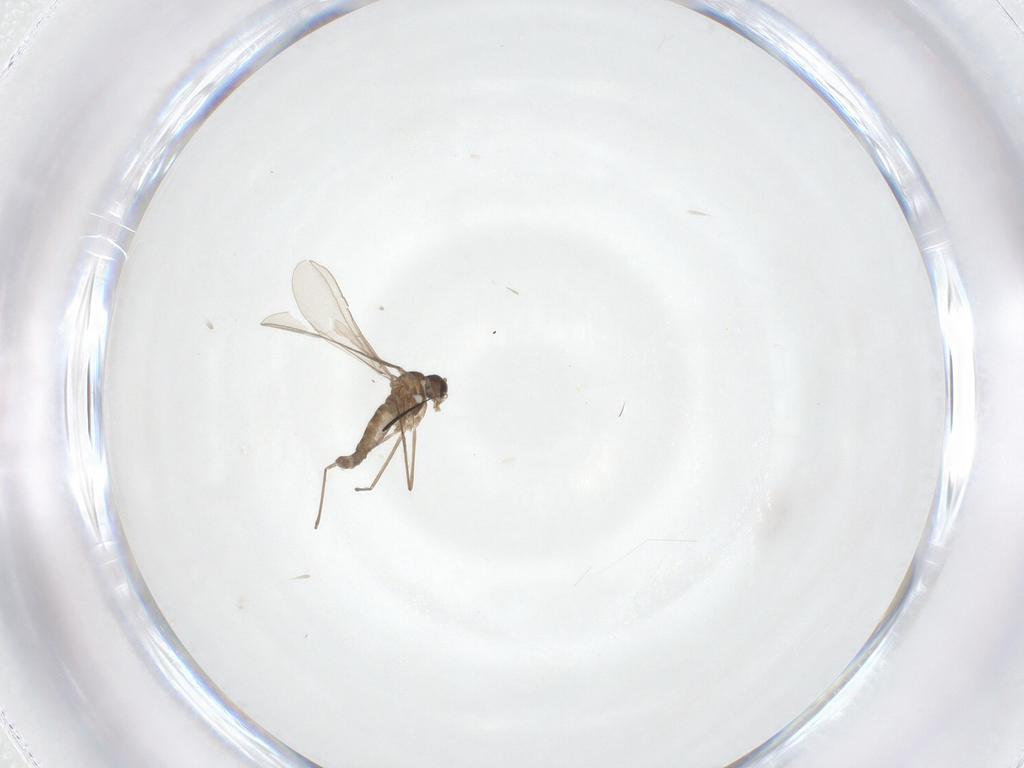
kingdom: Animalia
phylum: Arthropoda
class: Insecta
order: Diptera
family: Cecidomyiidae
